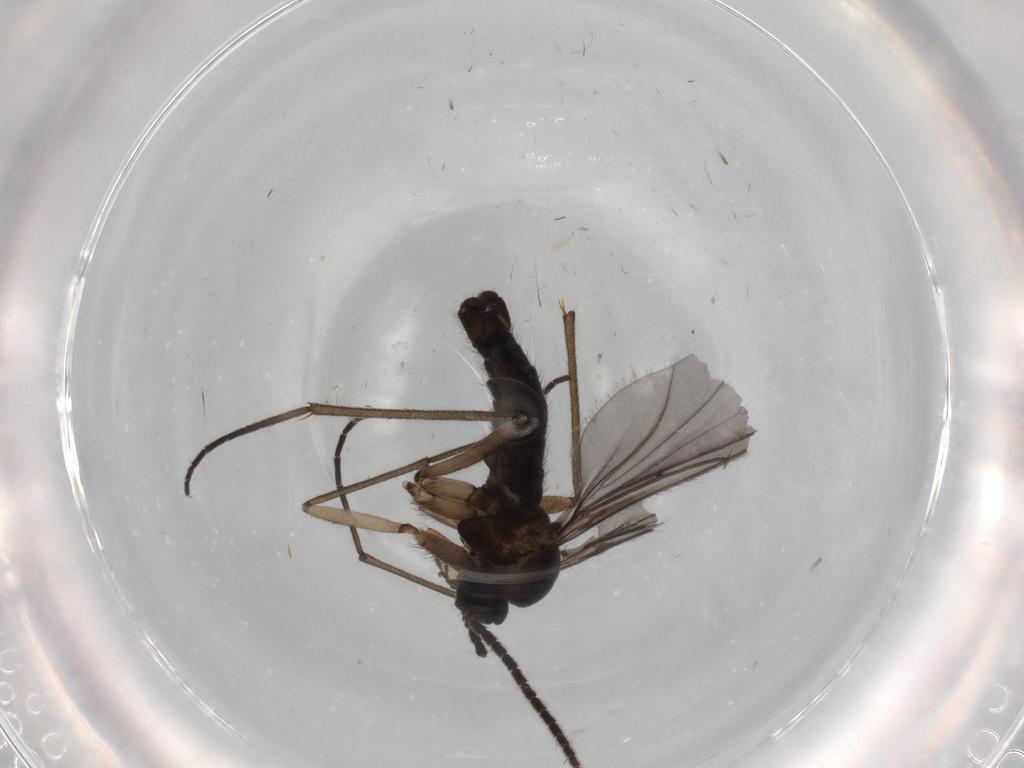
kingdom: Animalia
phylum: Arthropoda
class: Insecta
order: Diptera
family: Sciaridae
